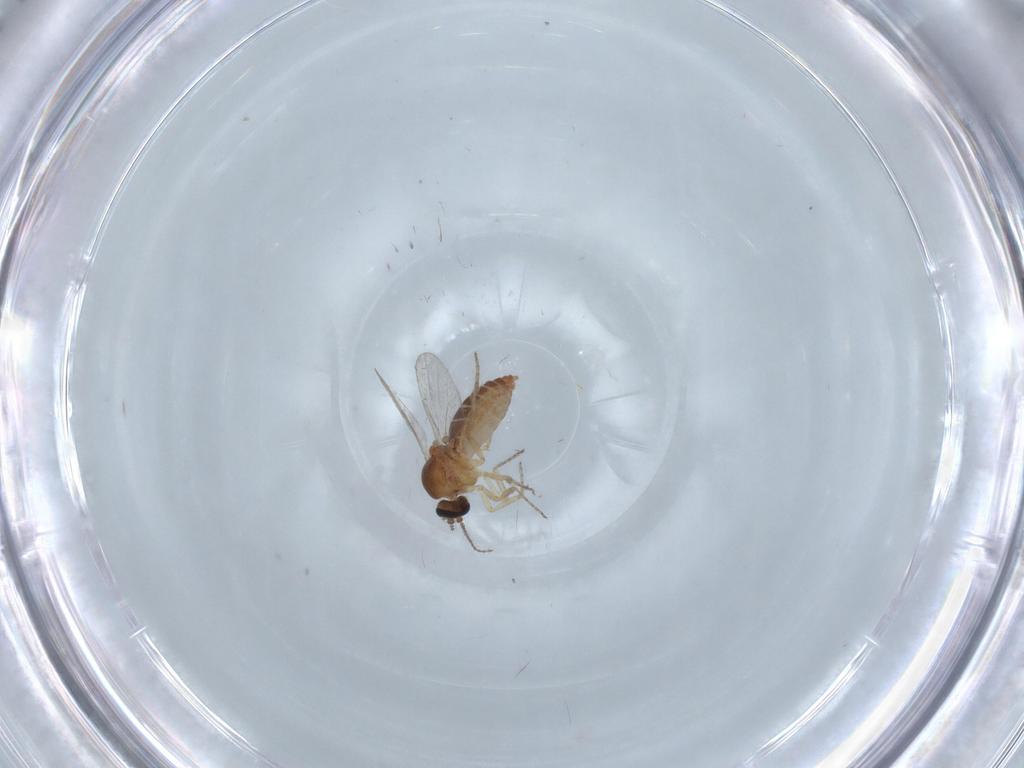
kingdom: Animalia
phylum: Arthropoda
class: Insecta
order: Diptera
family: Ceratopogonidae
